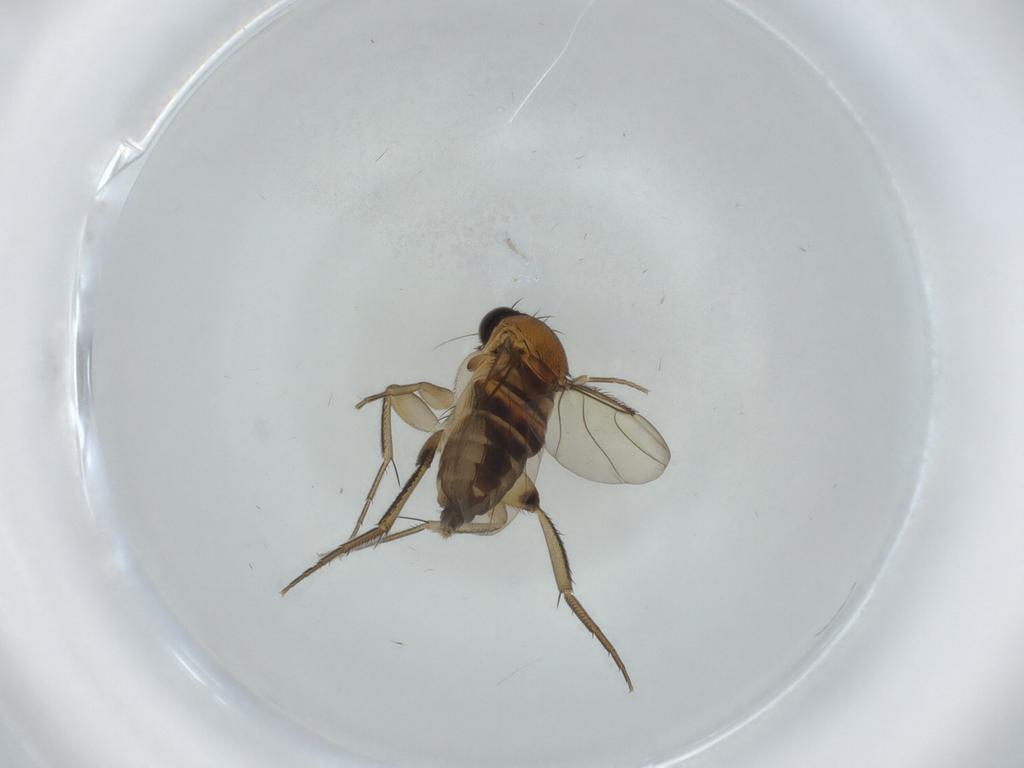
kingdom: Animalia
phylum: Arthropoda
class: Insecta
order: Diptera
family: Phoridae
